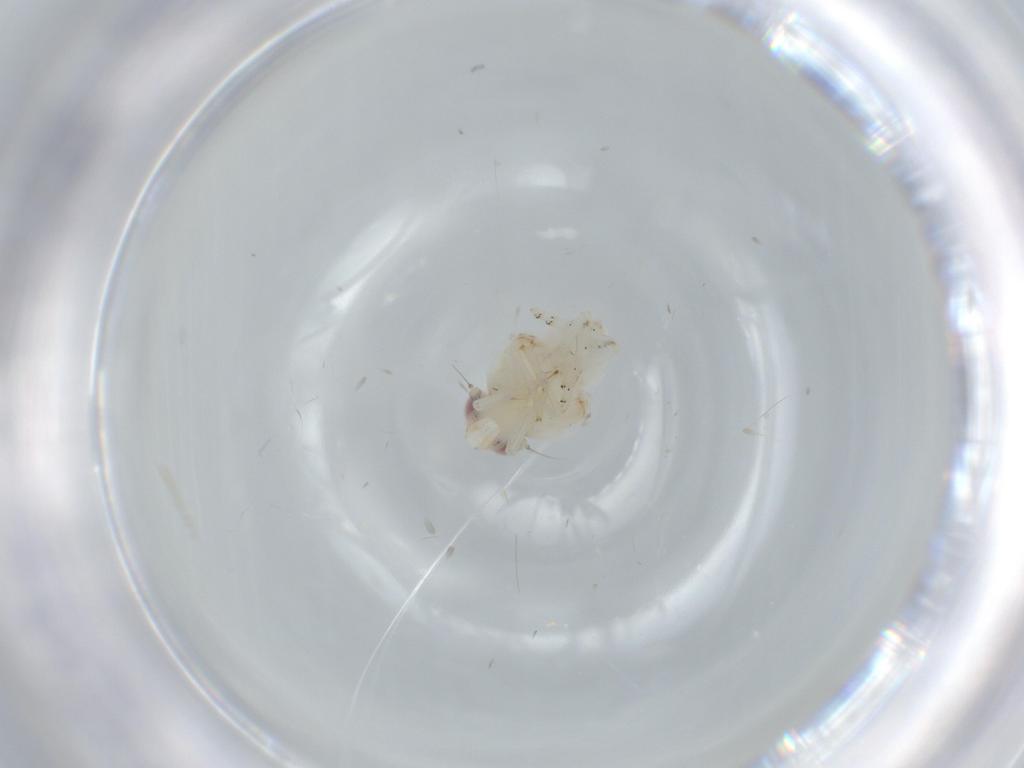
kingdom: Animalia
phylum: Arthropoda
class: Insecta
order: Hemiptera
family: Nogodinidae
